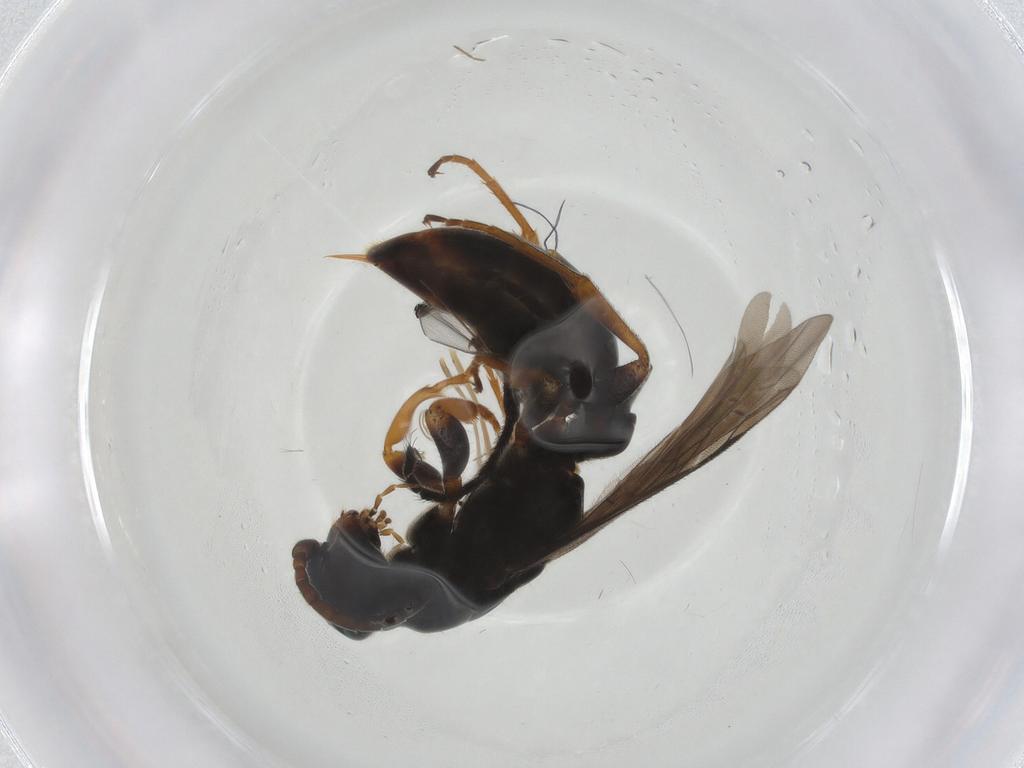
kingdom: Animalia
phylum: Arthropoda
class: Insecta
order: Hymenoptera
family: Sierolomorphidae
